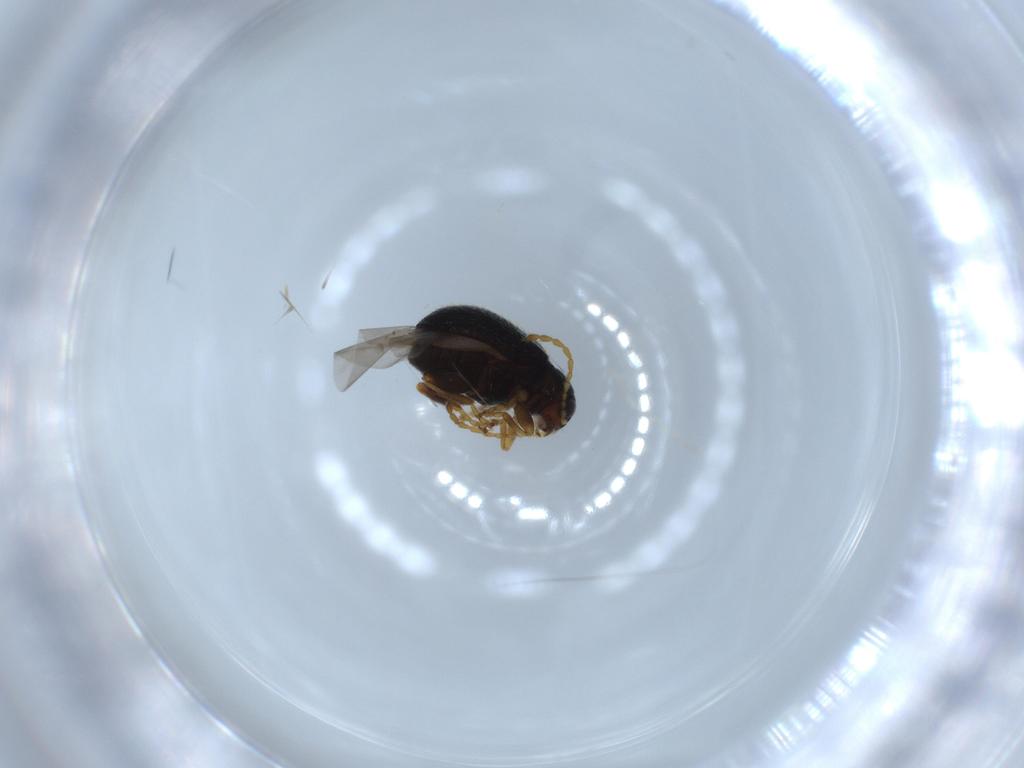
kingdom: Animalia
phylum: Arthropoda
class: Insecta
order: Coleoptera
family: Chrysomelidae
